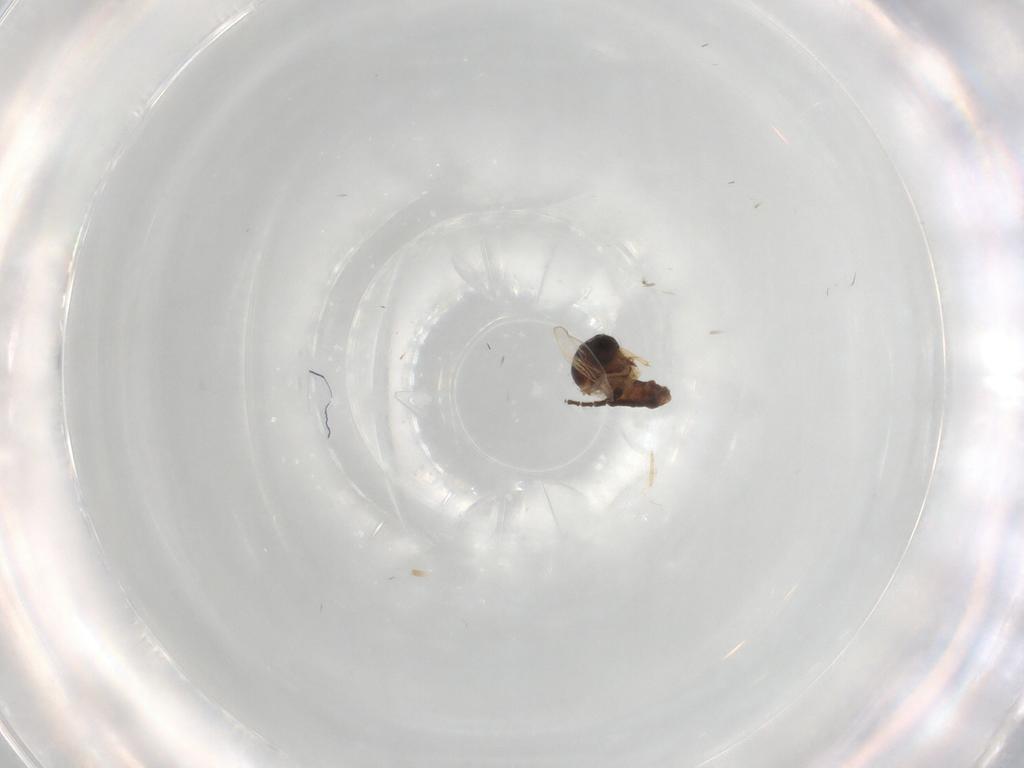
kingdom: Animalia
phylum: Arthropoda
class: Insecta
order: Diptera
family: Sciaridae
